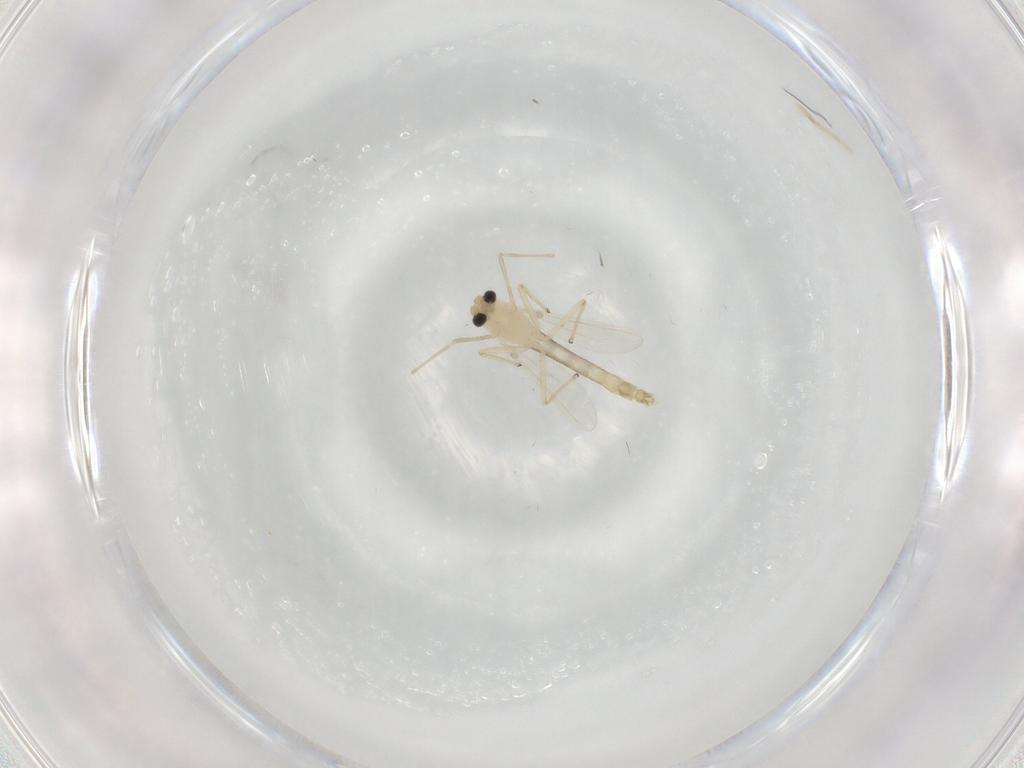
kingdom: Animalia
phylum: Arthropoda
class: Insecta
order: Diptera
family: Chironomidae
